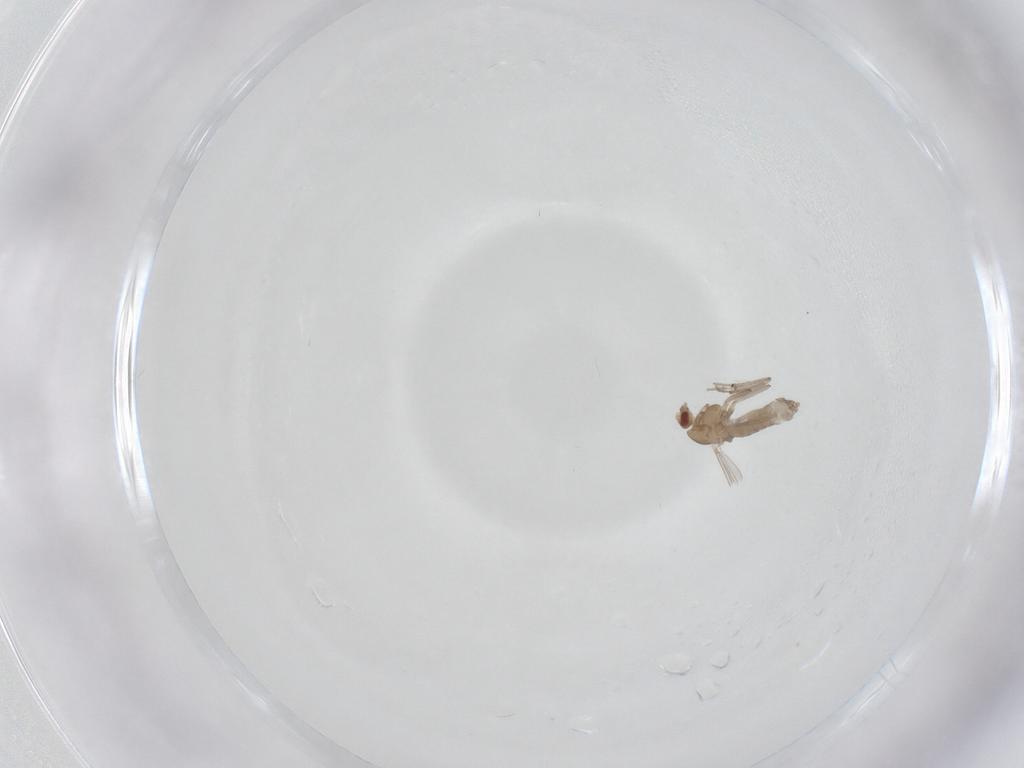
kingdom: Animalia
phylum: Arthropoda
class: Insecta
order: Diptera
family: Chironomidae
